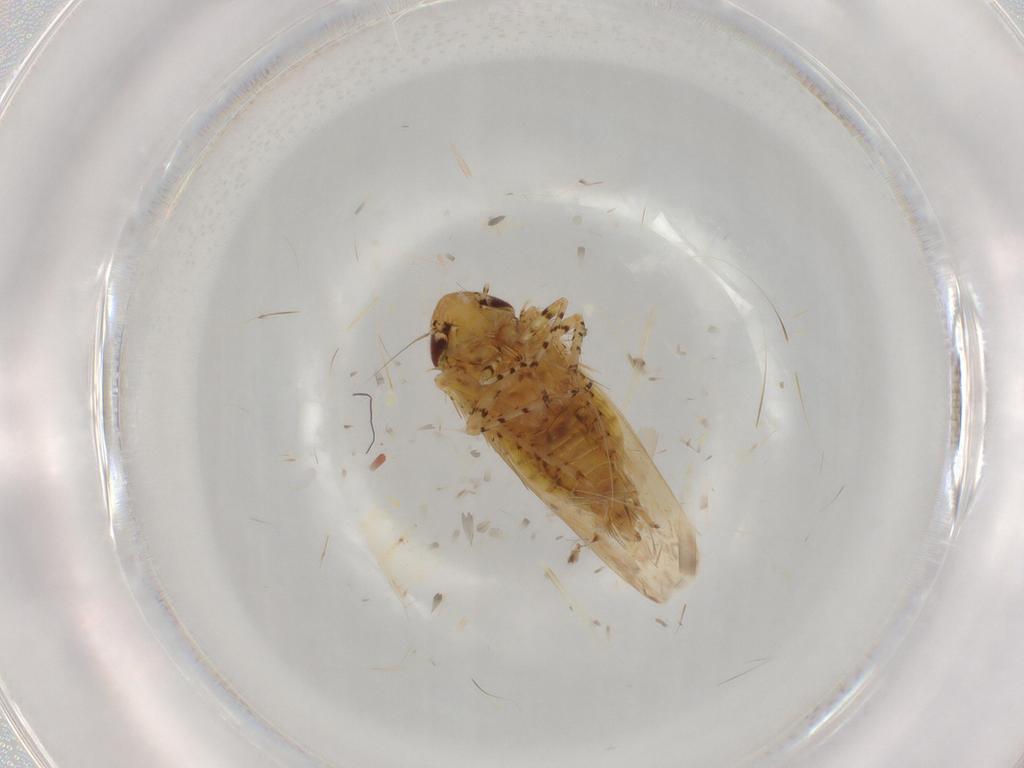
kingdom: Animalia
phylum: Arthropoda
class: Insecta
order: Hemiptera
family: Cicadellidae
